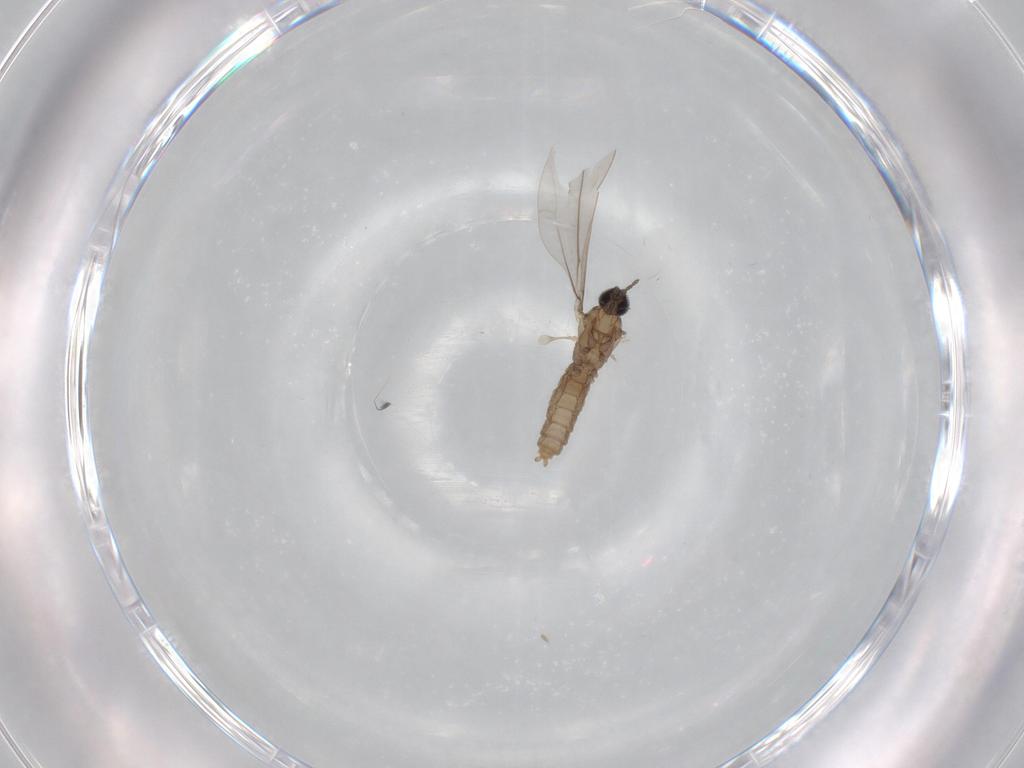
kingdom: Animalia
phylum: Arthropoda
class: Insecta
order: Diptera
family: Cecidomyiidae
